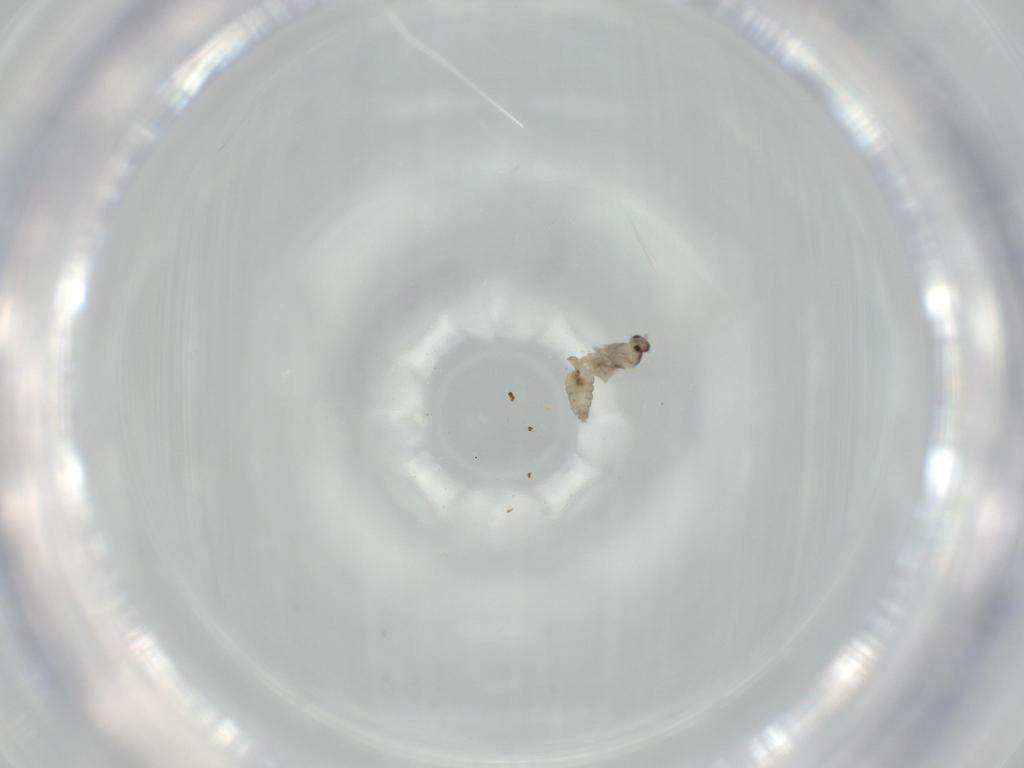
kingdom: Animalia
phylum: Arthropoda
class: Insecta
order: Diptera
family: Cecidomyiidae
